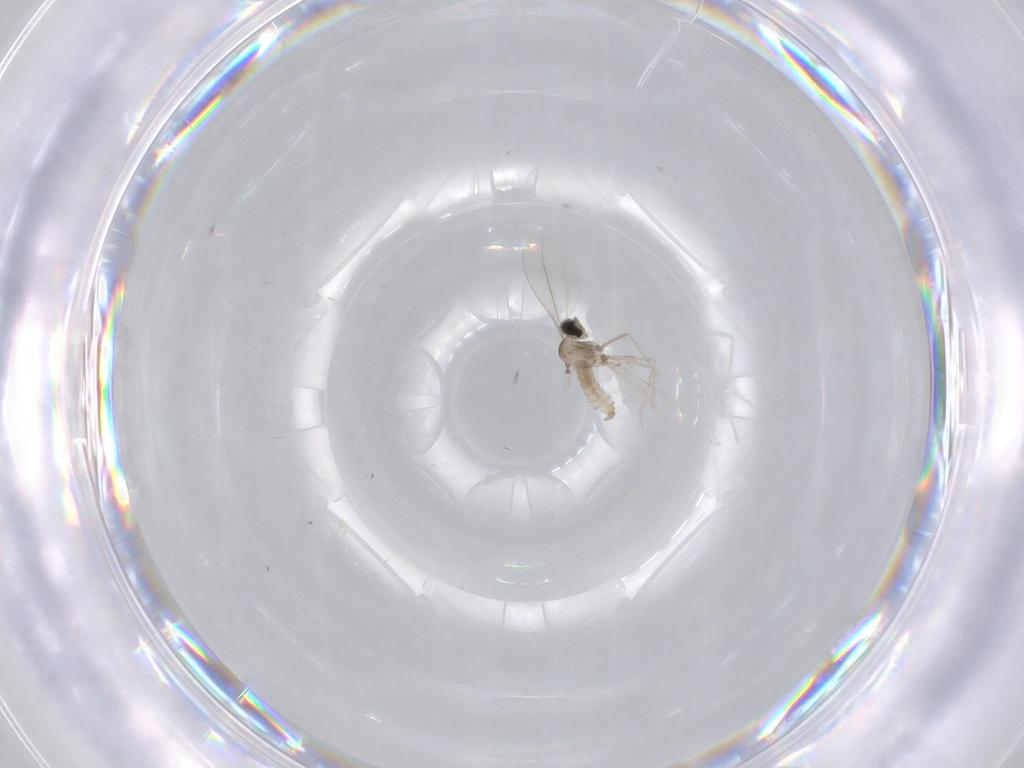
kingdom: Animalia
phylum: Arthropoda
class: Insecta
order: Diptera
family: Cecidomyiidae
